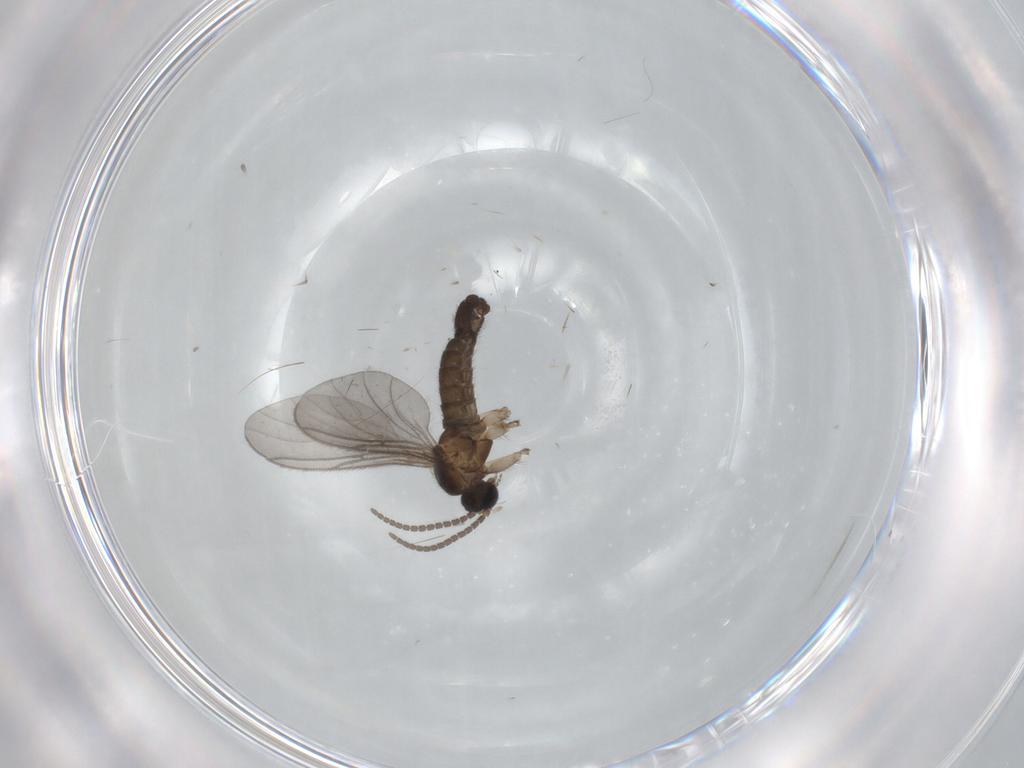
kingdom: Animalia
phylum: Arthropoda
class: Insecta
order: Diptera
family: Sciaridae
